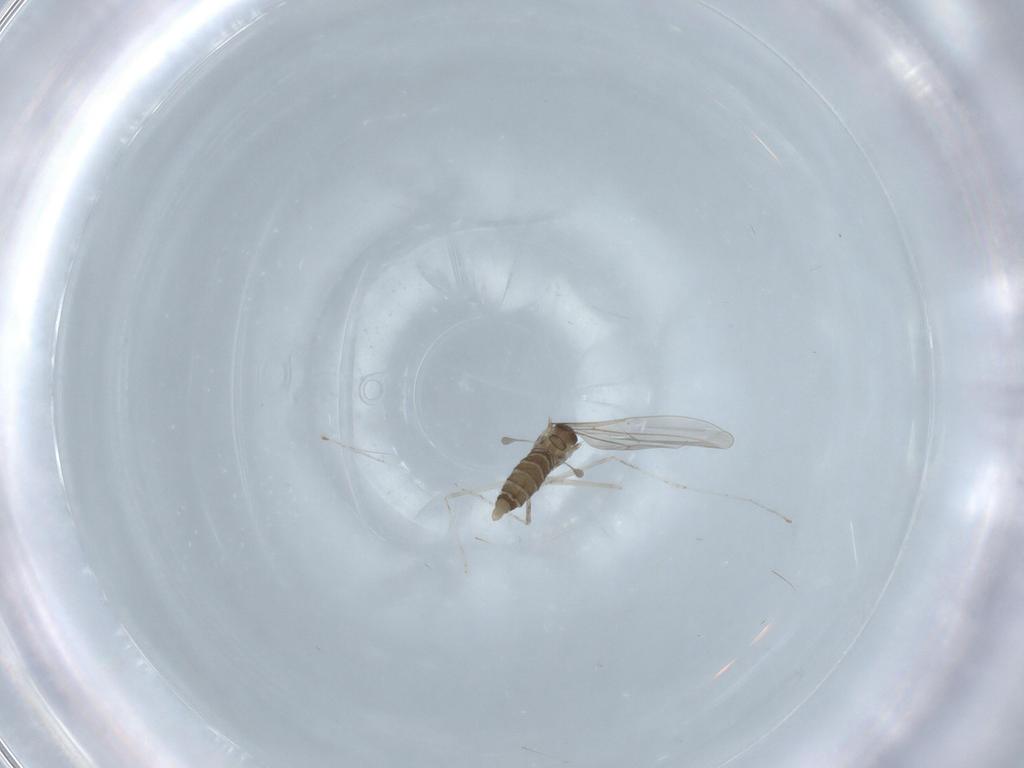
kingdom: Animalia
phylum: Arthropoda
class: Insecta
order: Diptera
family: Cecidomyiidae
